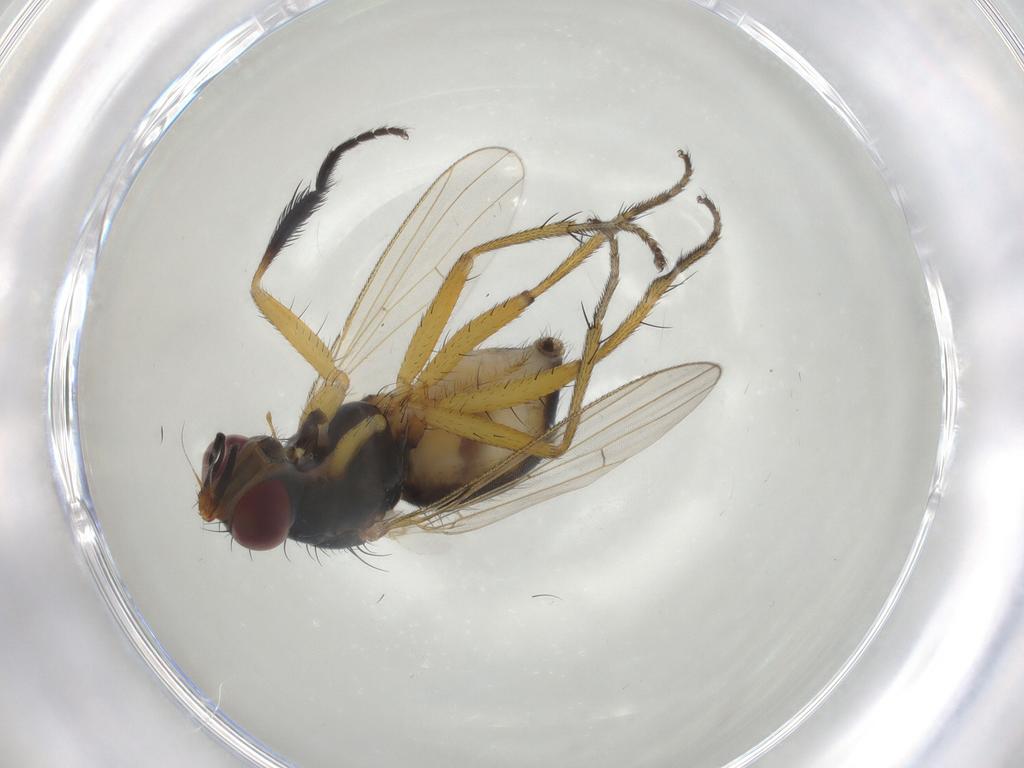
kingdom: Animalia
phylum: Arthropoda
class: Insecta
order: Diptera
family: Muscidae
